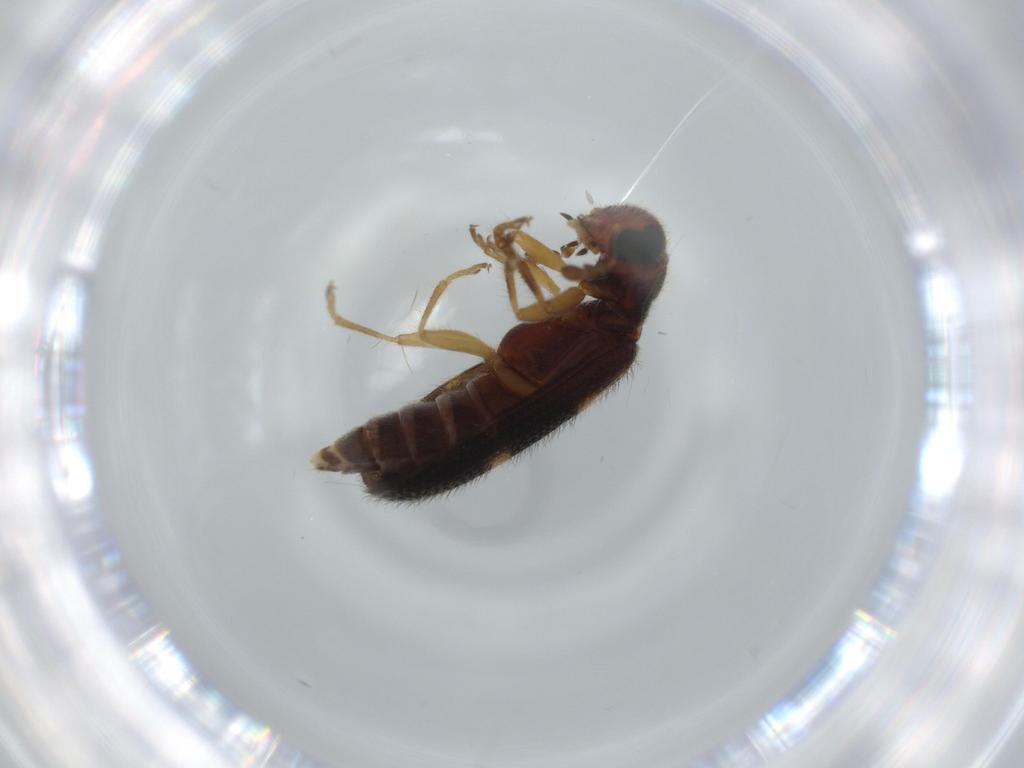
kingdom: Animalia
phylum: Arthropoda
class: Insecta
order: Coleoptera
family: Cleridae
